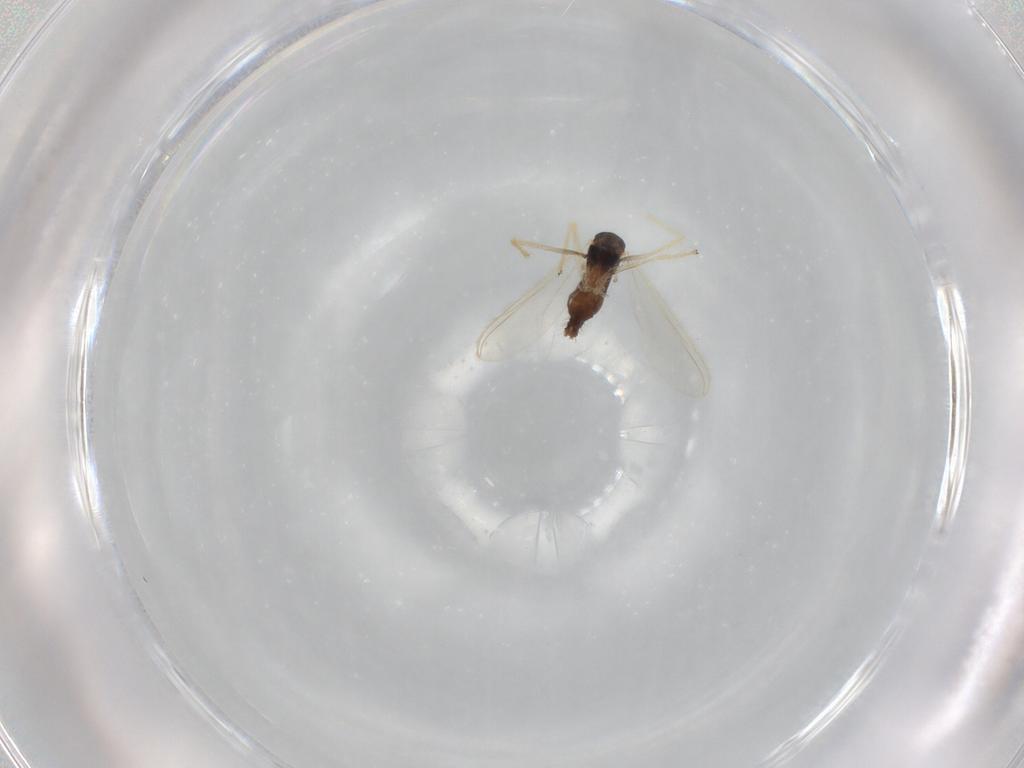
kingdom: Animalia
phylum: Arthropoda
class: Insecta
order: Diptera
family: Chironomidae
